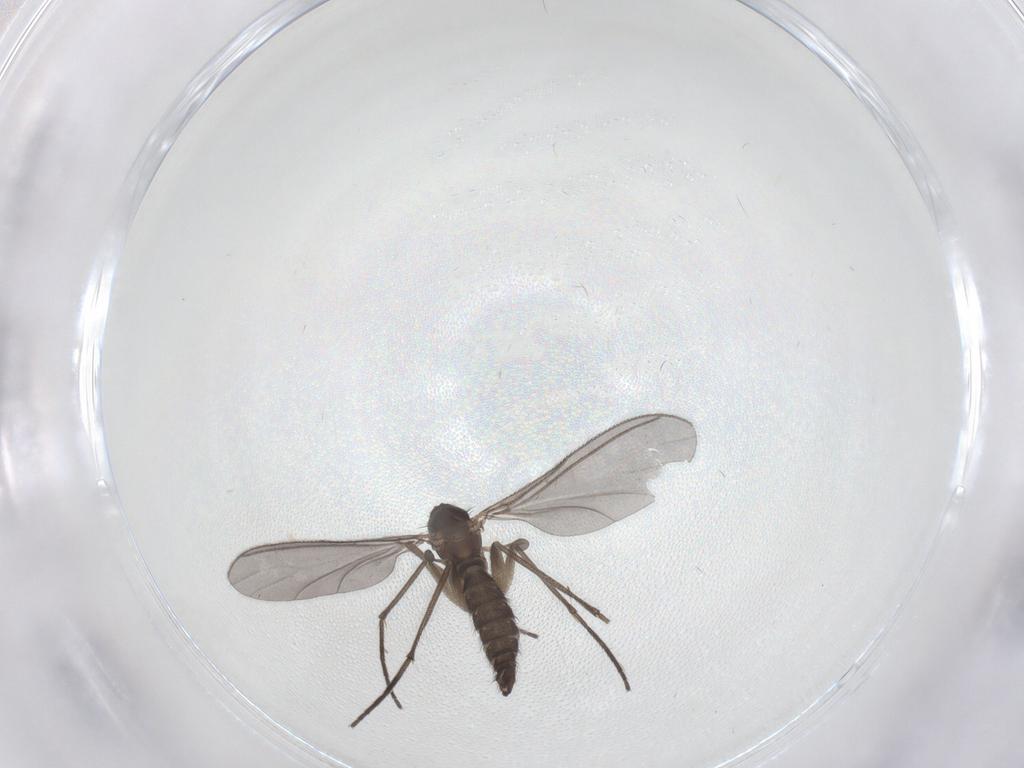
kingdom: Animalia
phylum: Arthropoda
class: Insecta
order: Diptera
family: Sciaridae
